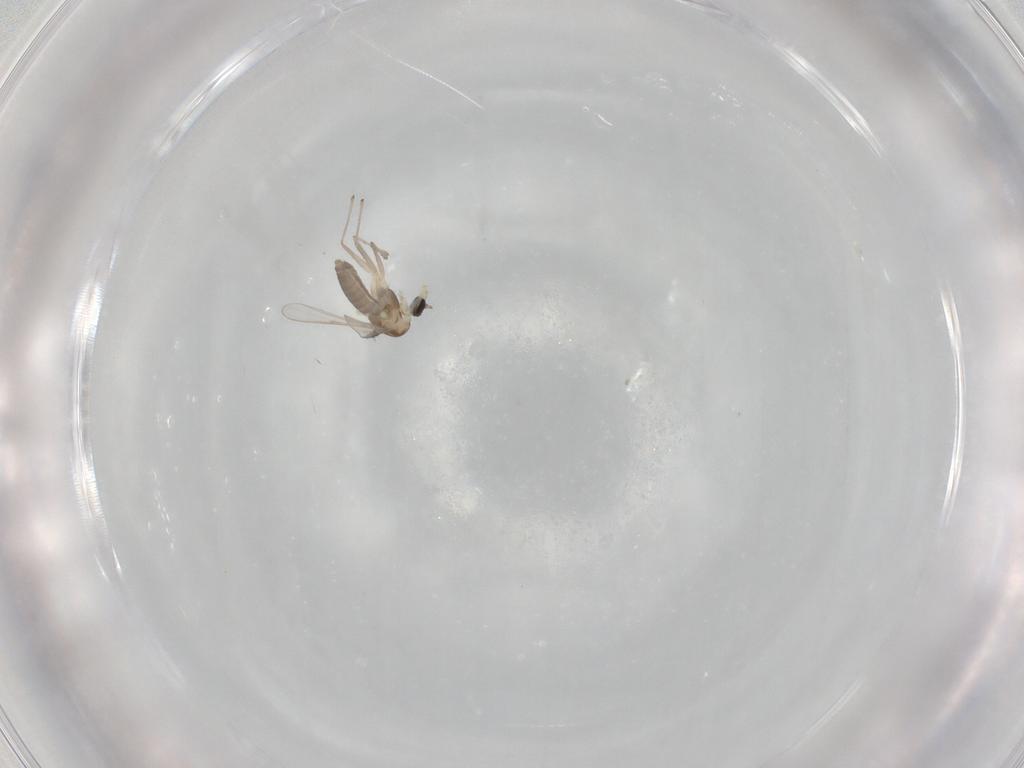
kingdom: Animalia
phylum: Arthropoda
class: Insecta
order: Diptera
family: Chironomidae
